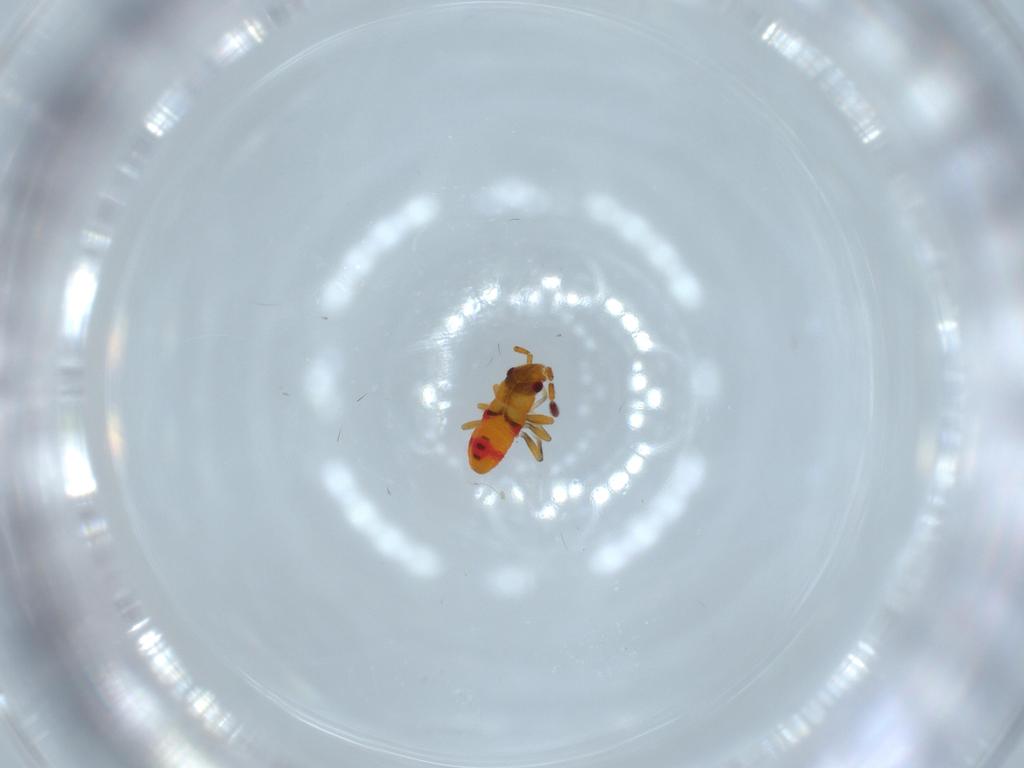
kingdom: Animalia
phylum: Arthropoda
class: Insecta
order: Hemiptera
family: Rhyparochromidae
